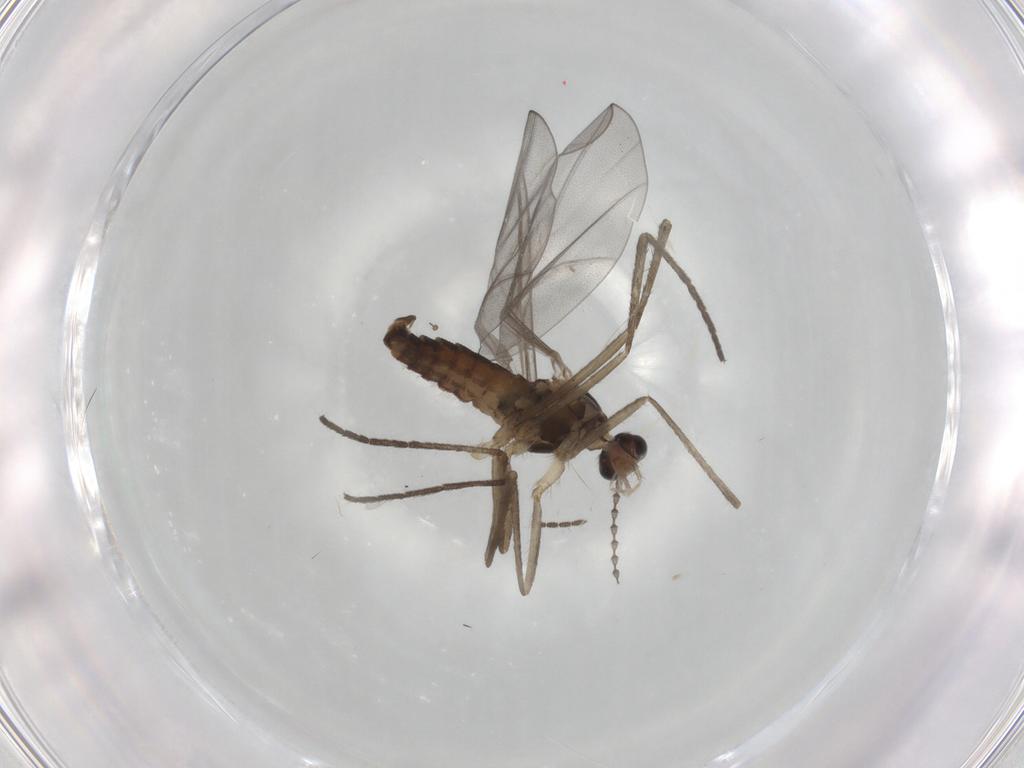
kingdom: Animalia
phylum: Arthropoda
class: Insecta
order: Diptera
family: Cecidomyiidae
